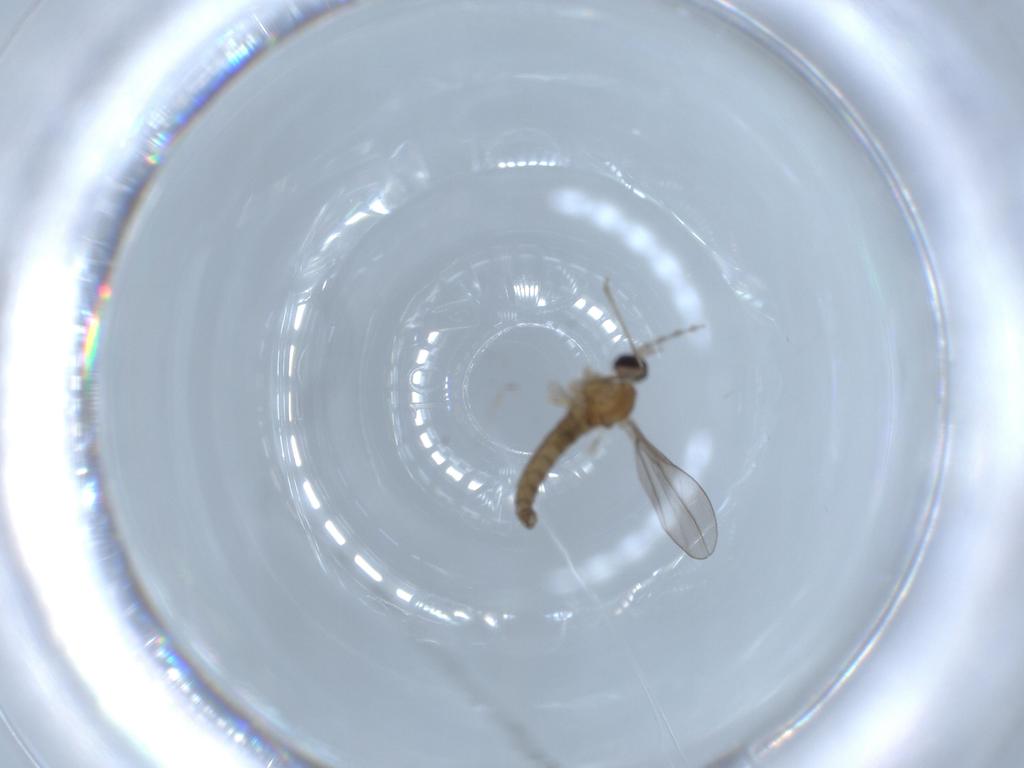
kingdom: Animalia
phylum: Arthropoda
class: Insecta
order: Diptera
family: Cecidomyiidae
